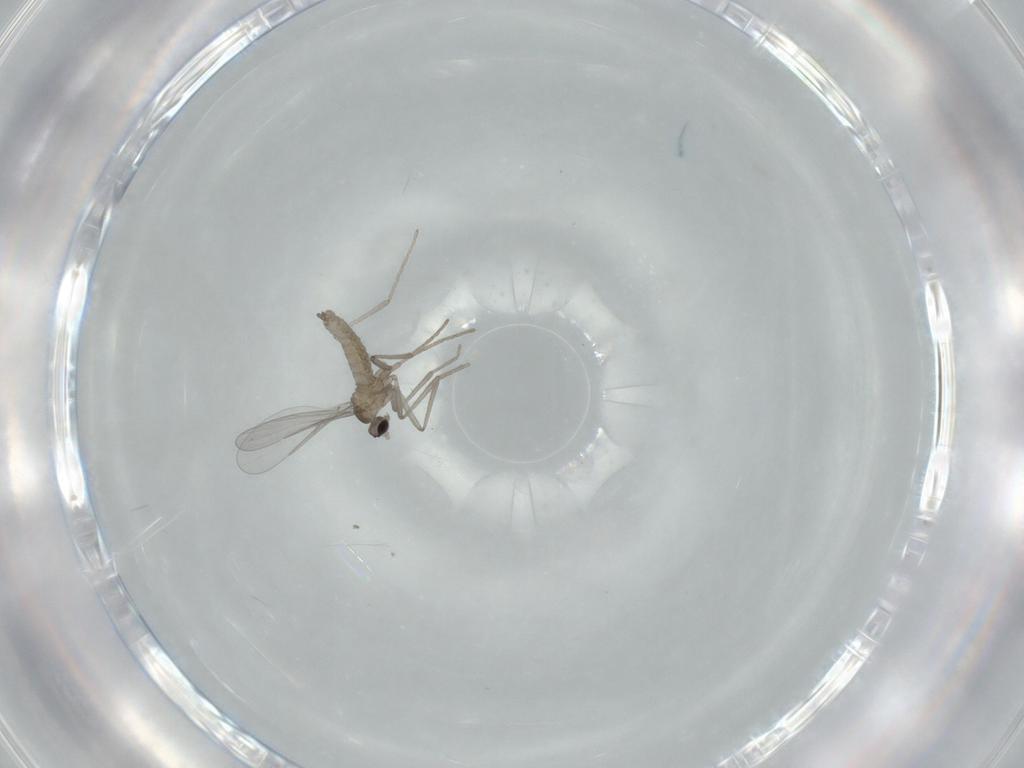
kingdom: Animalia
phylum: Arthropoda
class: Insecta
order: Diptera
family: Cecidomyiidae
